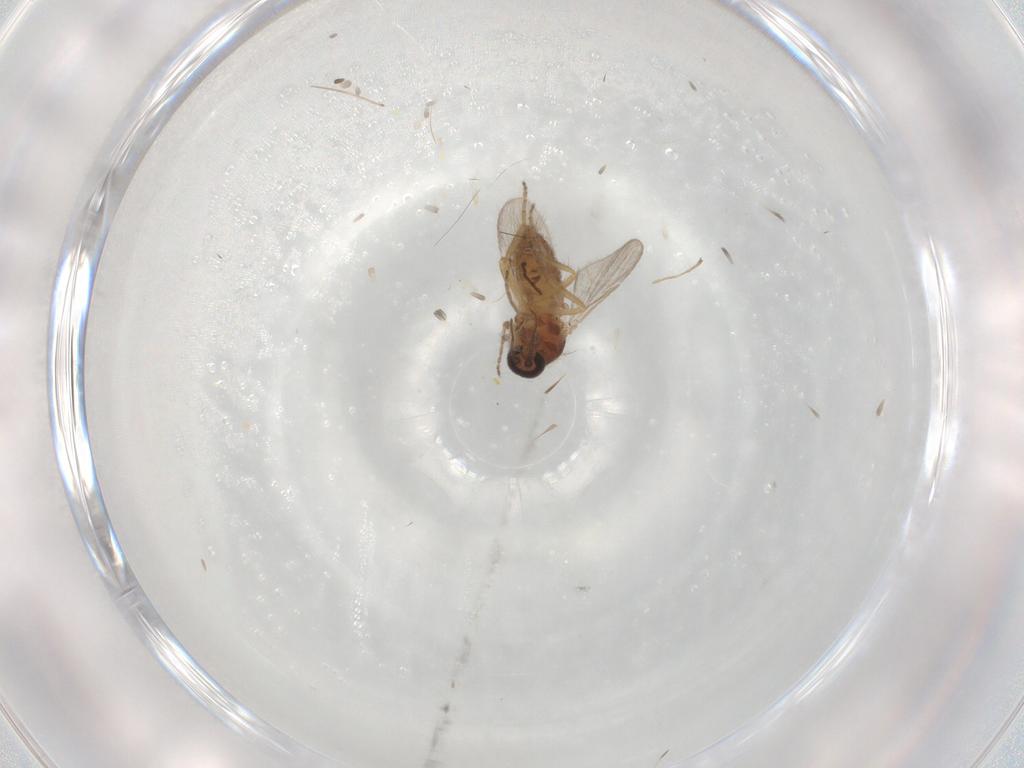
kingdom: Animalia
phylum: Arthropoda
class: Insecta
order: Diptera
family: Ceratopogonidae
